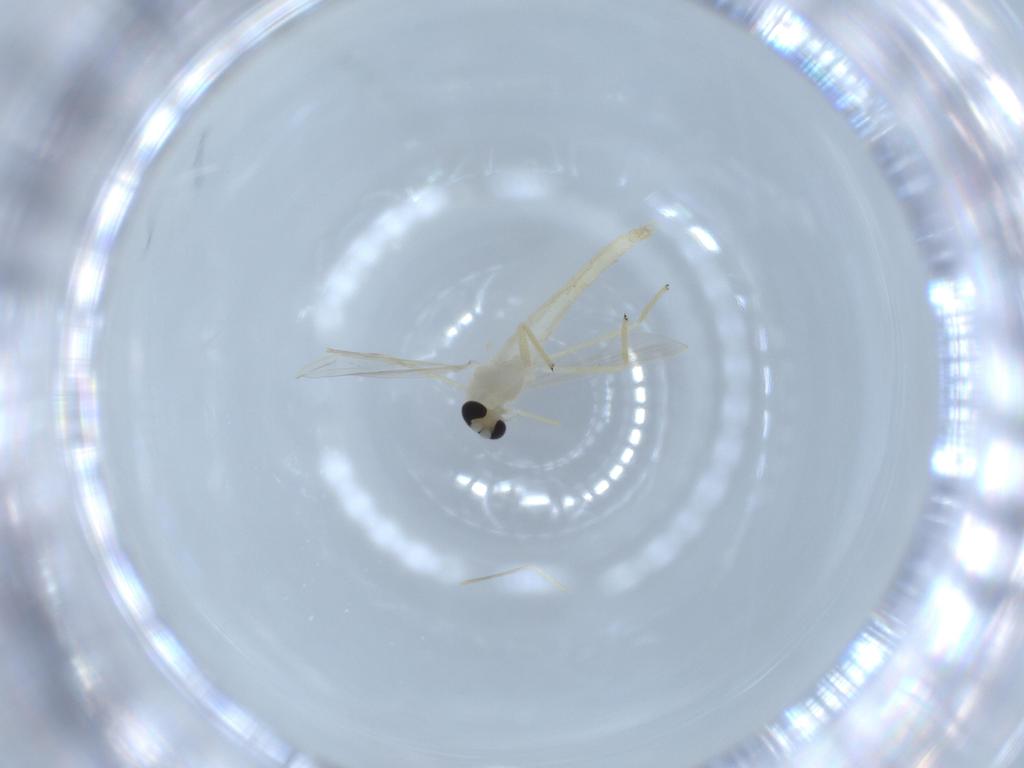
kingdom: Animalia
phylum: Arthropoda
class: Insecta
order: Diptera
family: Chironomidae
